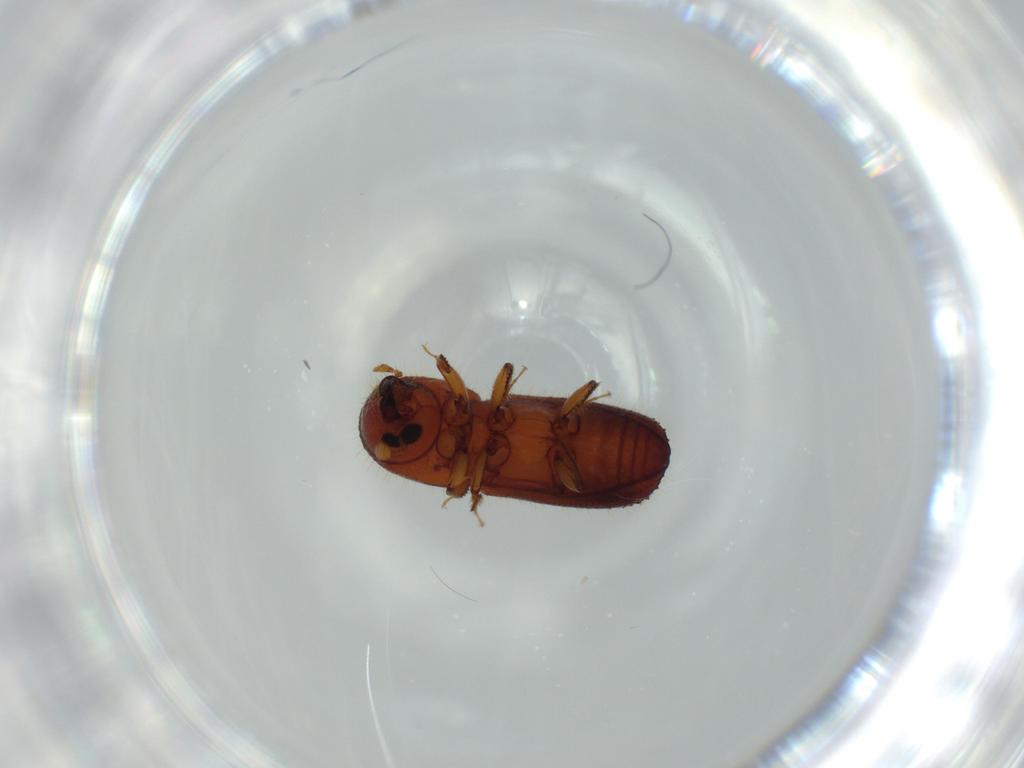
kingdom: Animalia
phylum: Arthropoda
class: Insecta
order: Coleoptera
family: Curculionidae
